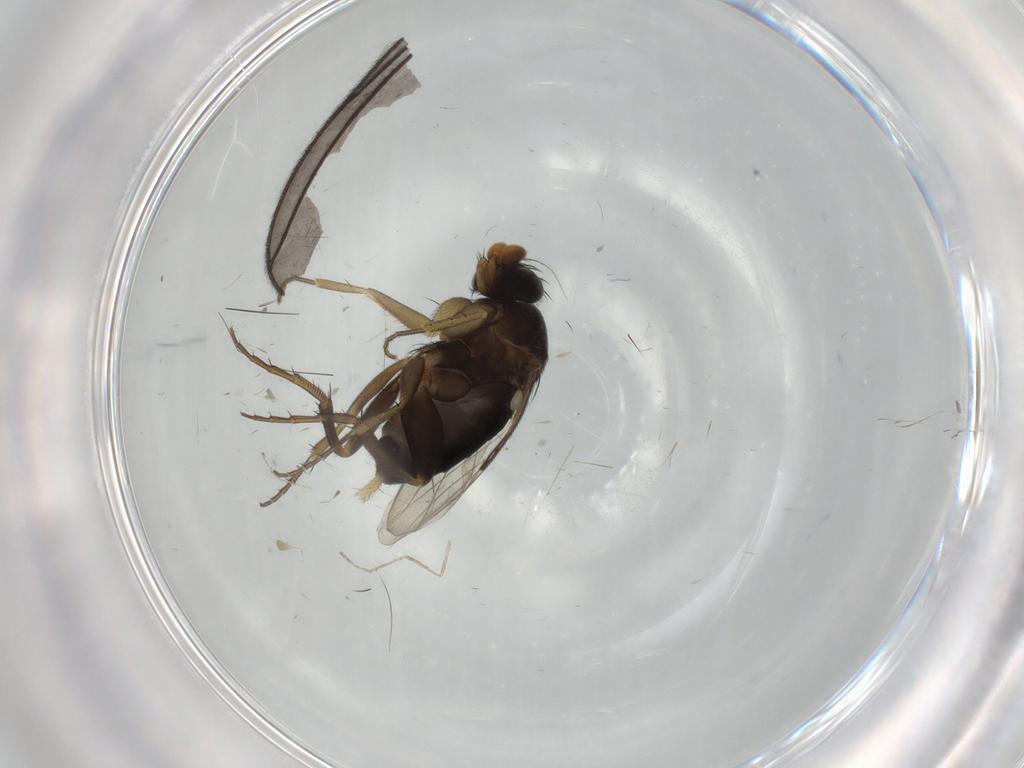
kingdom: Animalia
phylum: Arthropoda
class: Insecta
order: Diptera
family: Phoridae
